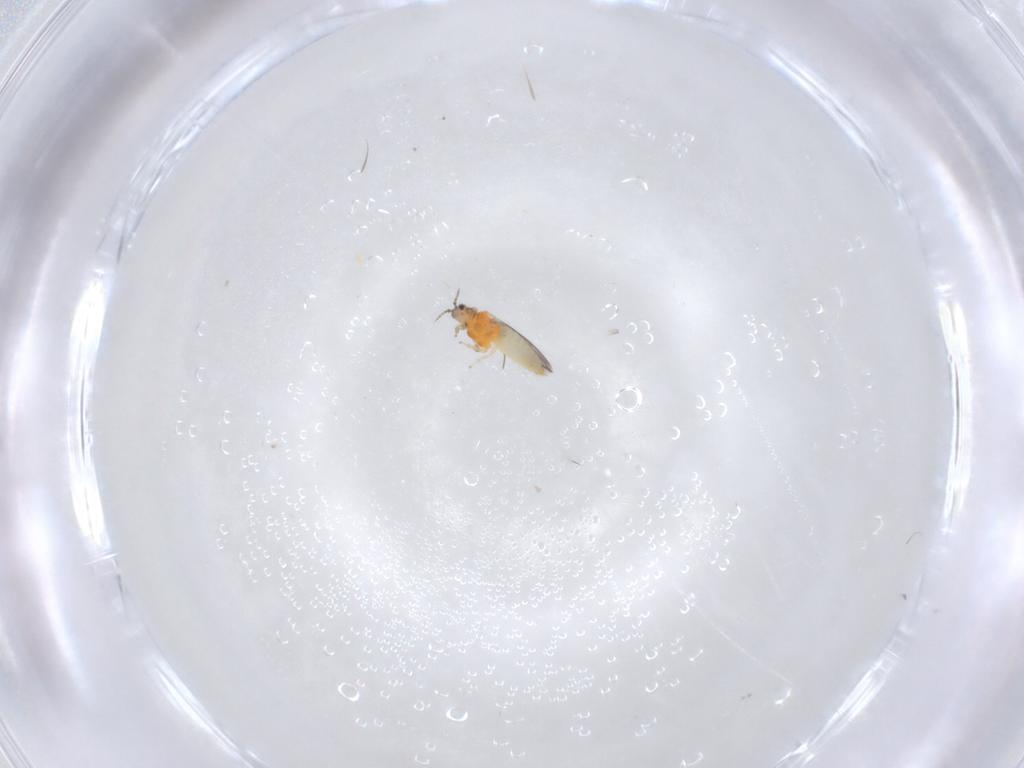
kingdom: Animalia
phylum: Arthropoda
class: Insecta
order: Thysanoptera
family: Thripidae
